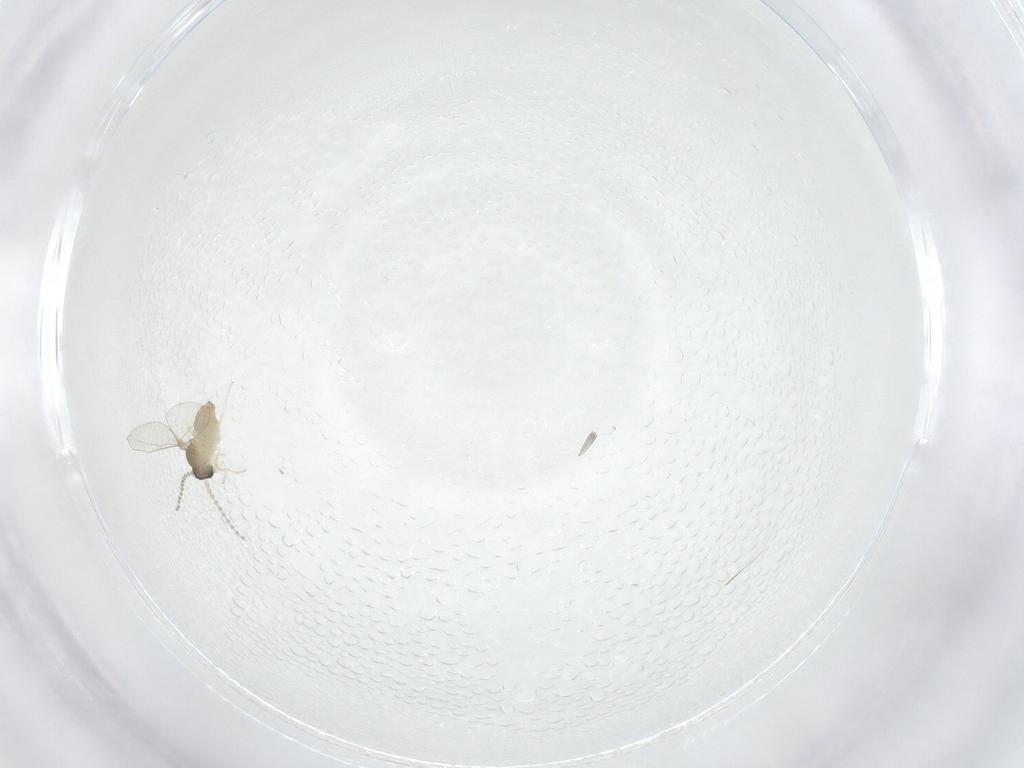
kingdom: Animalia
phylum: Arthropoda
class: Insecta
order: Diptera
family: Cecidomyiidae
